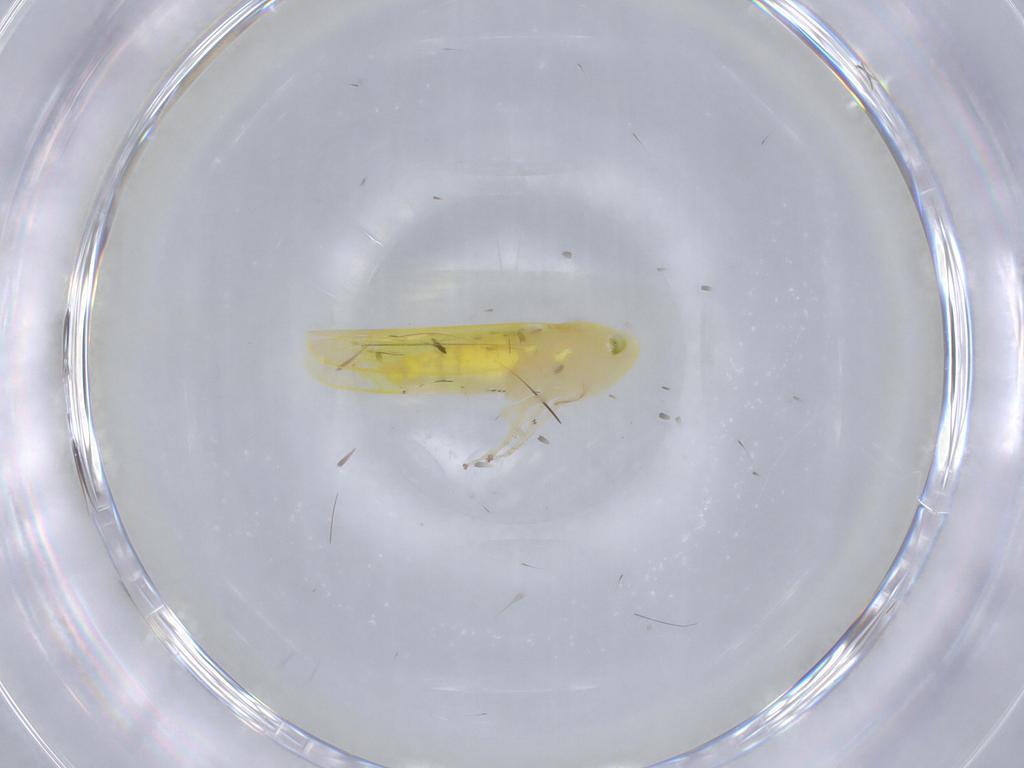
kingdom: Animalia
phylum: Arthropoda
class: Insecta
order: Hemiptera
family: Cicadellidae
